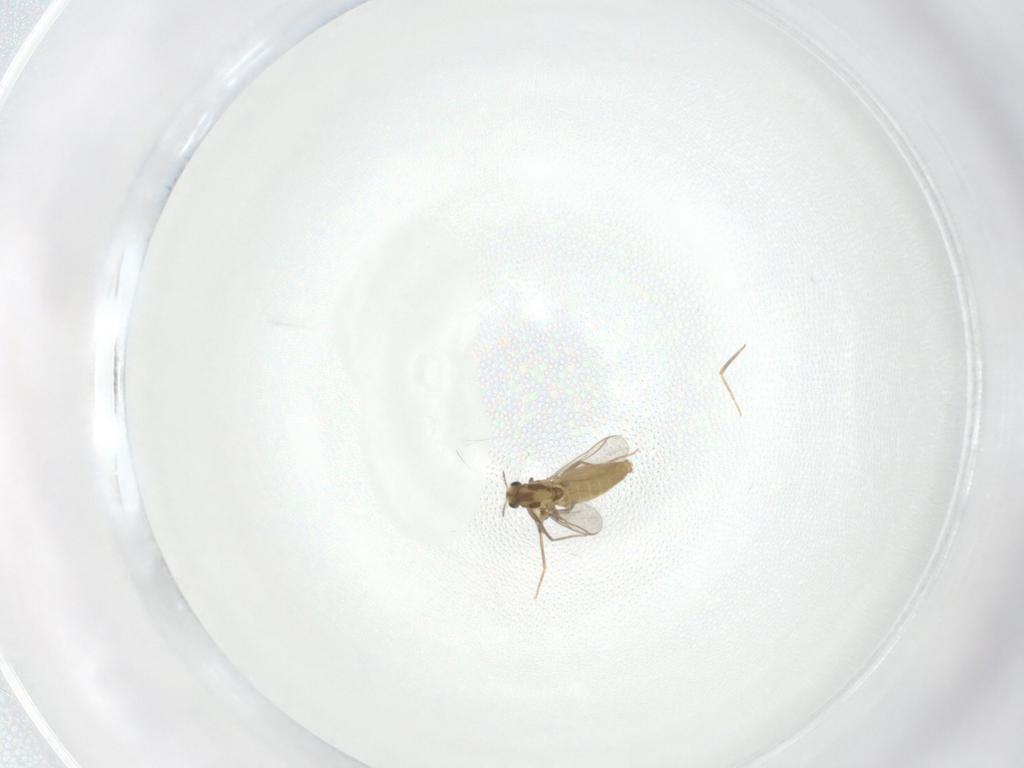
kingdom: Animalia
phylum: Arthropoda
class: Insecta
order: Diptera
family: Chironomidae
